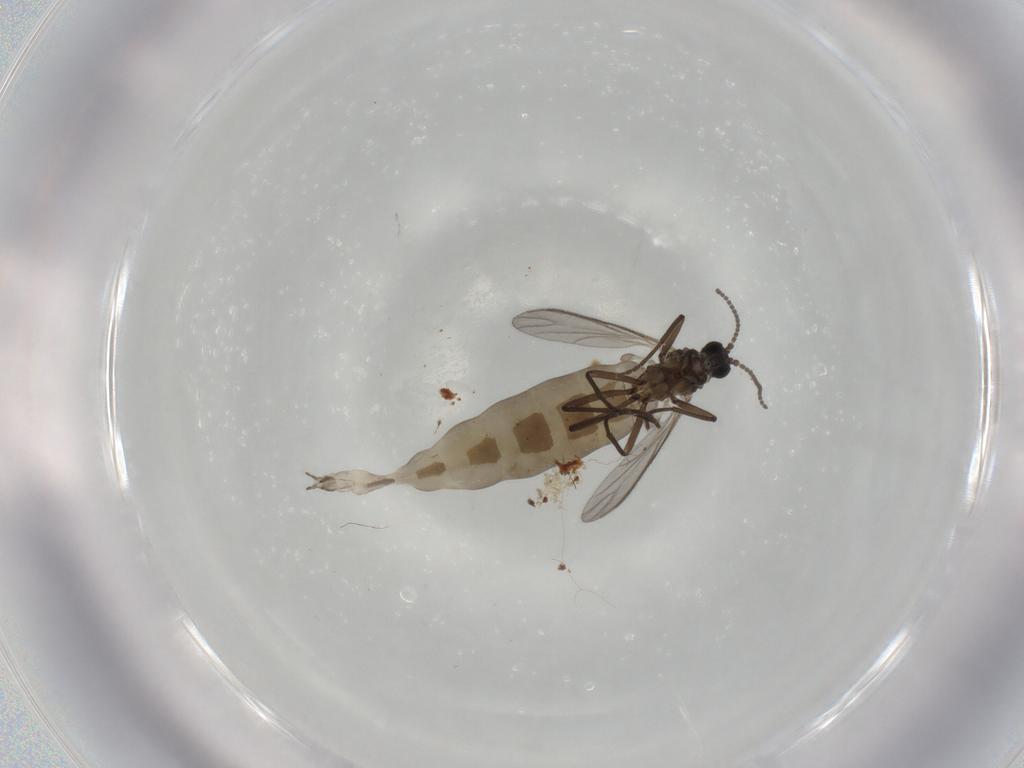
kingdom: Animalia
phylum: Arthropoda
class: Insecta
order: Diptera
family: Sciaridae
